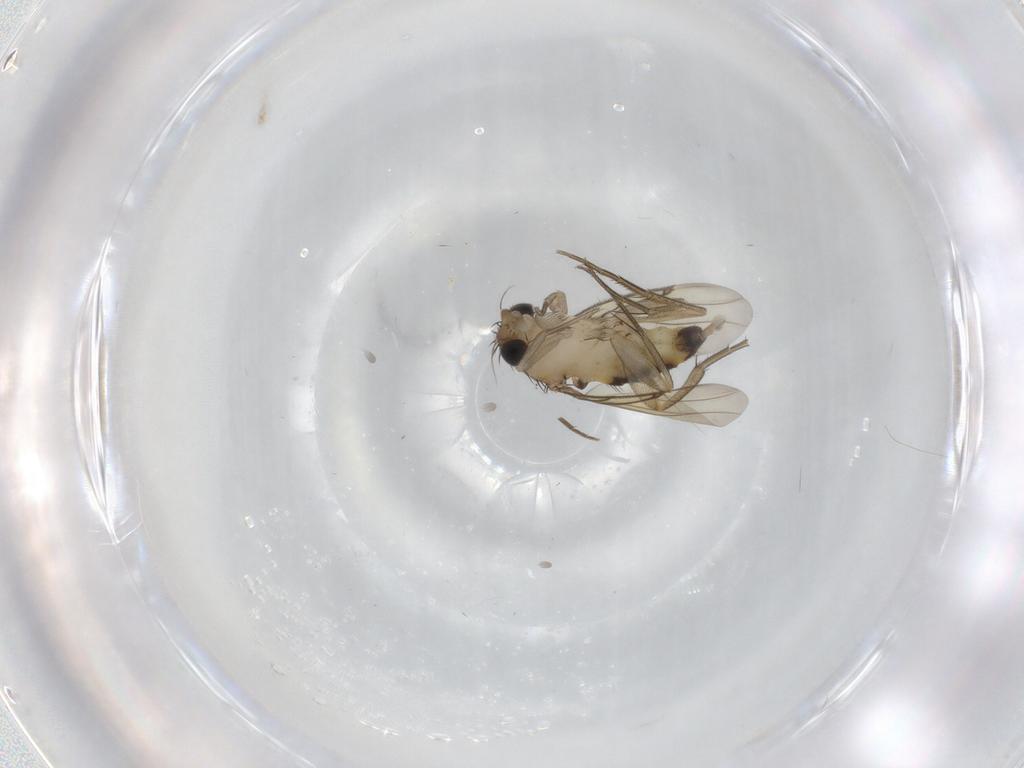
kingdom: Animalia
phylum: Arthropoda
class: Insecta
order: Diptera
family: Phoridae
